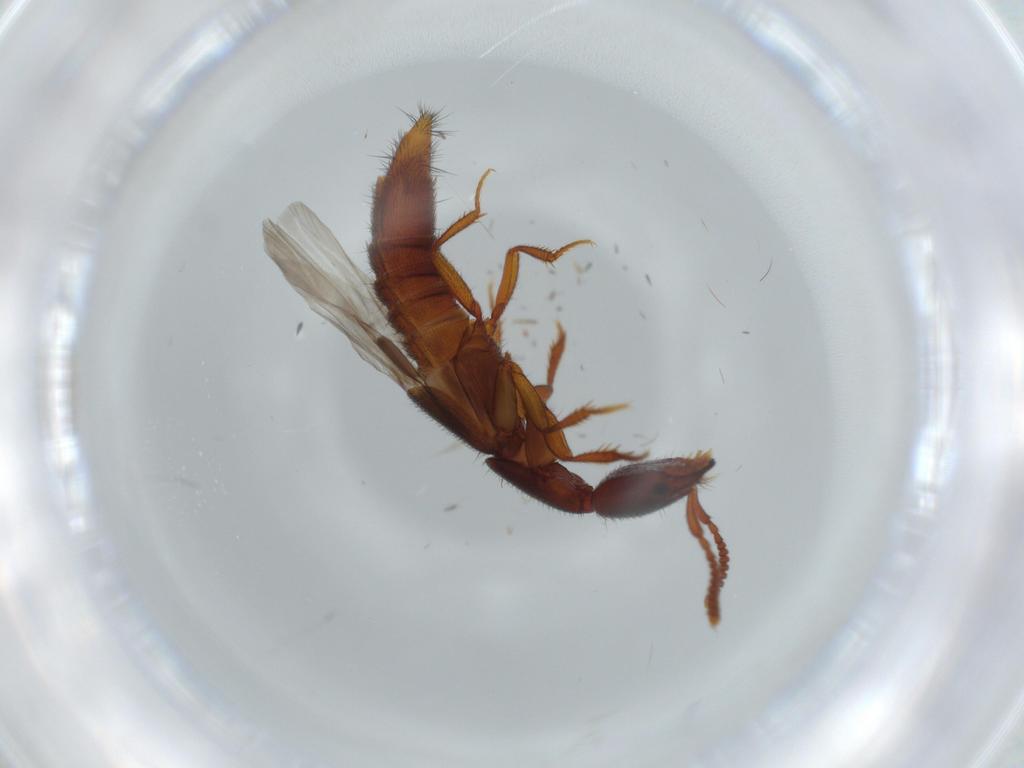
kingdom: Animalia
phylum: Arthropoda
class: Insecta
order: Coleoptera
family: Staphylinidae
